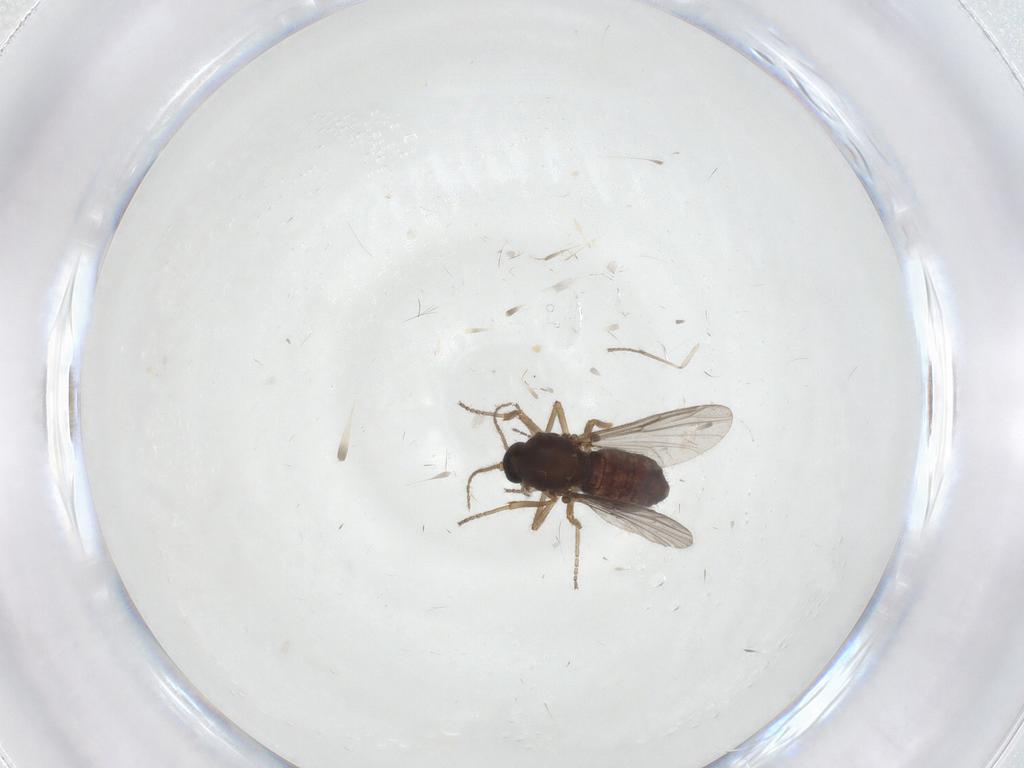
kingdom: Animalia
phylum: Arthropoda
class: Insecta
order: Diptera
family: Ceratopogonidae
